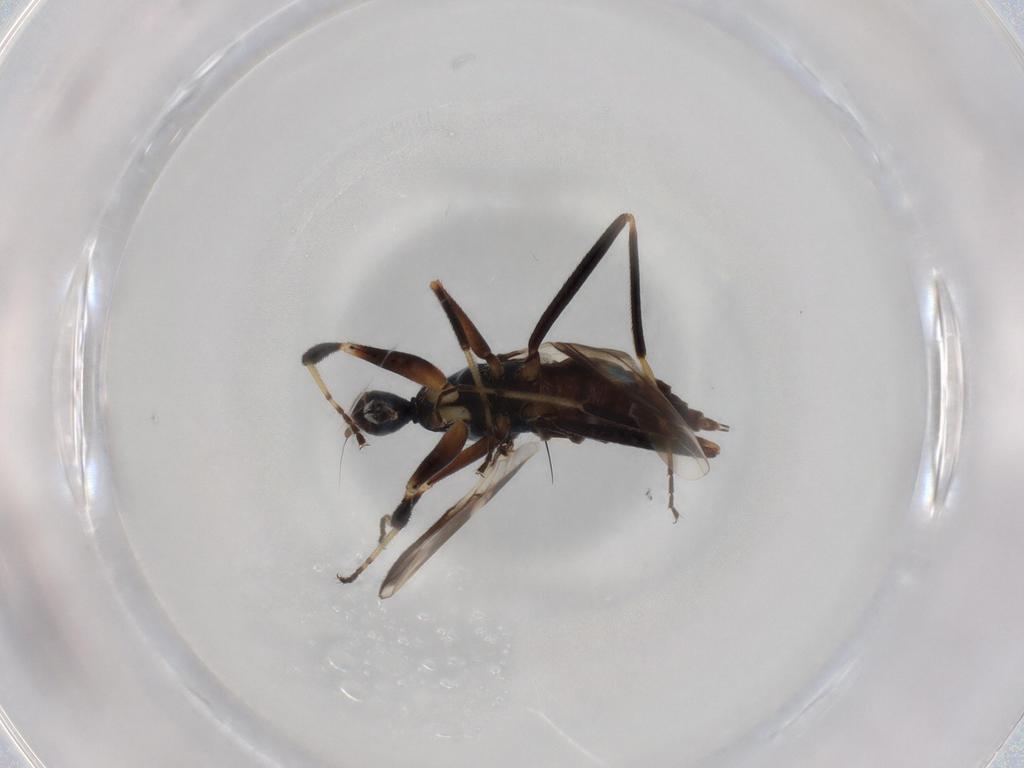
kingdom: Animalia
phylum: Arthropoda
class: Insecta
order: Diptera
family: Hybotidae
